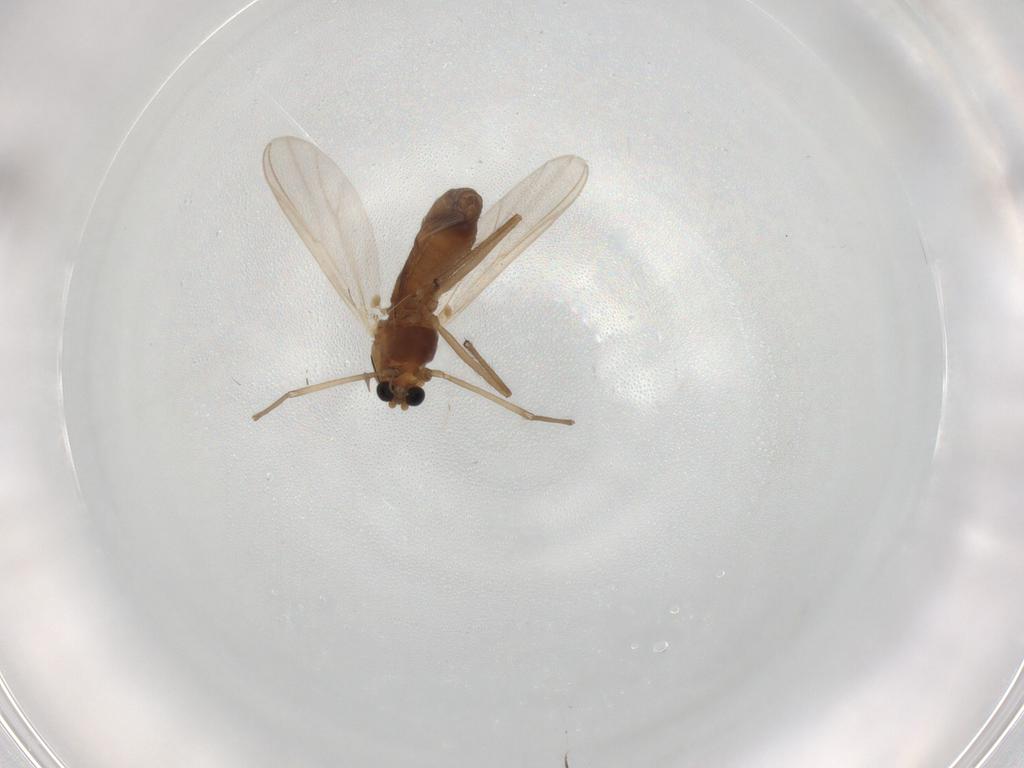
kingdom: Animalia
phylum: Arthropoda
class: Insecta
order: Diptera
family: Chironomidae
